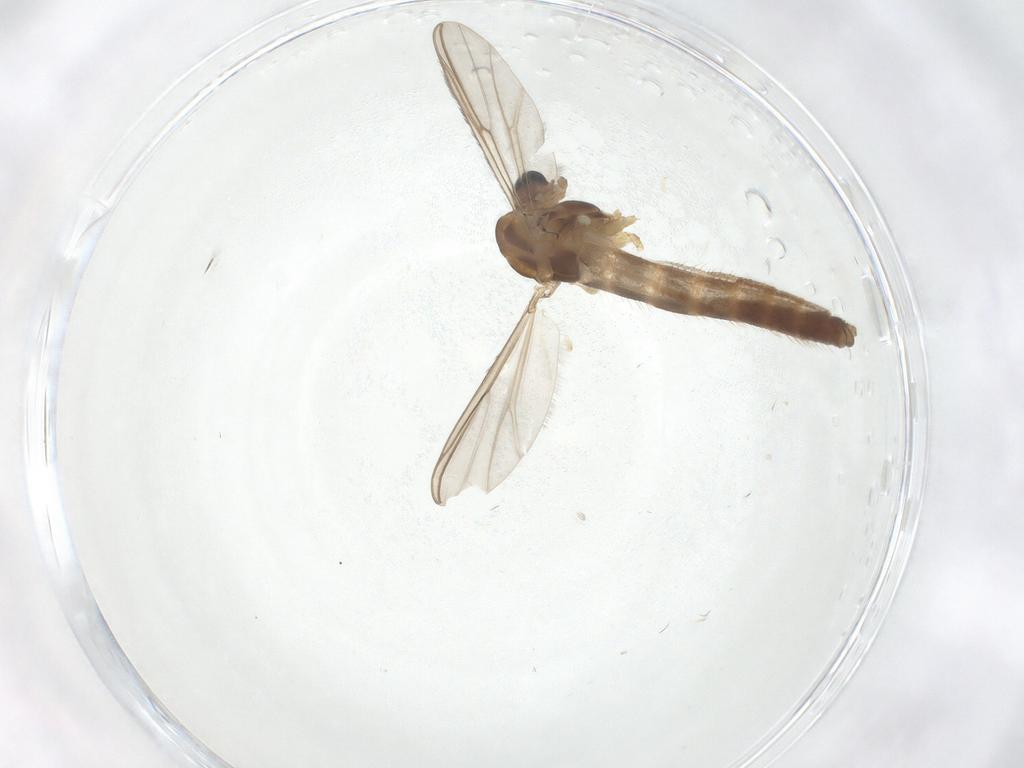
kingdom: Animalia
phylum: Arthropoda
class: Insecta
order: Diptera
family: Chironomidae
